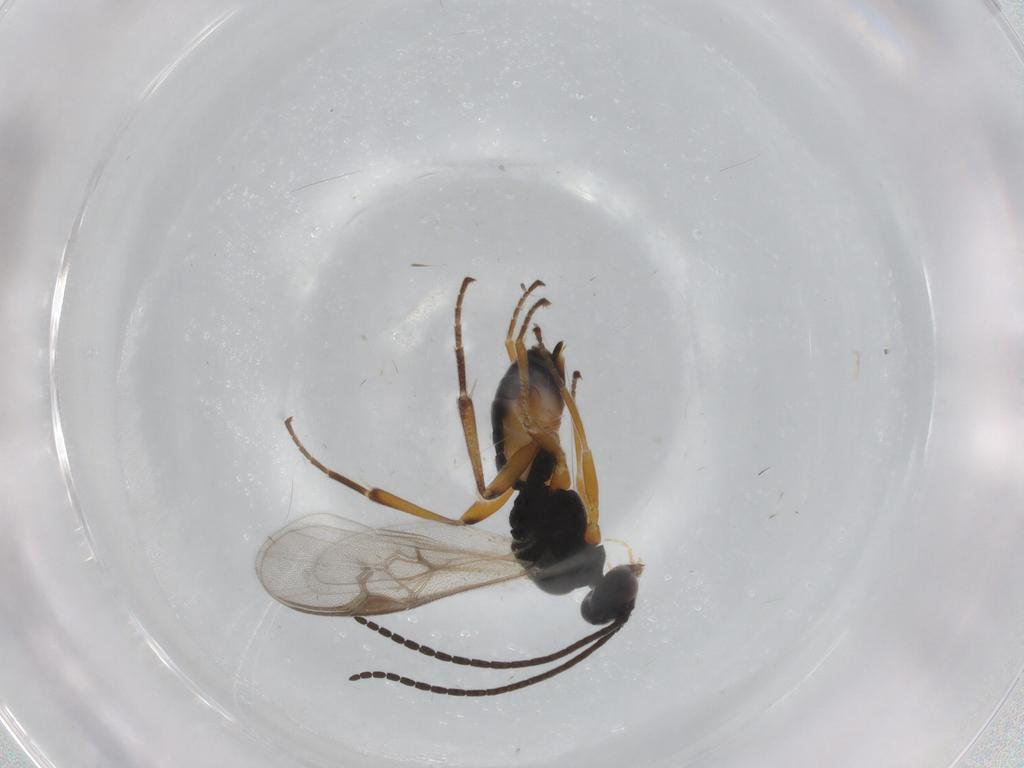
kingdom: Animalia
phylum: Arthropoda
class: Insecta
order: Hymenoptera
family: Braconidae
